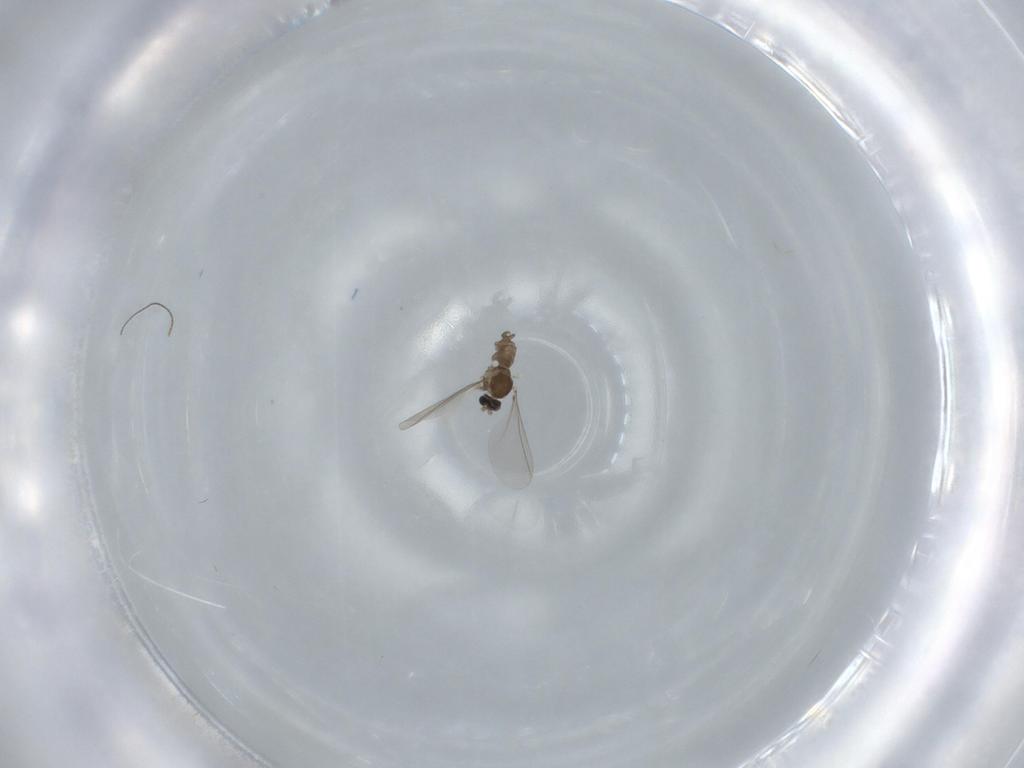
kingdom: Animalia
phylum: Arthropoda
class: Insecta
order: Diptera
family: Cecidomyiidae
